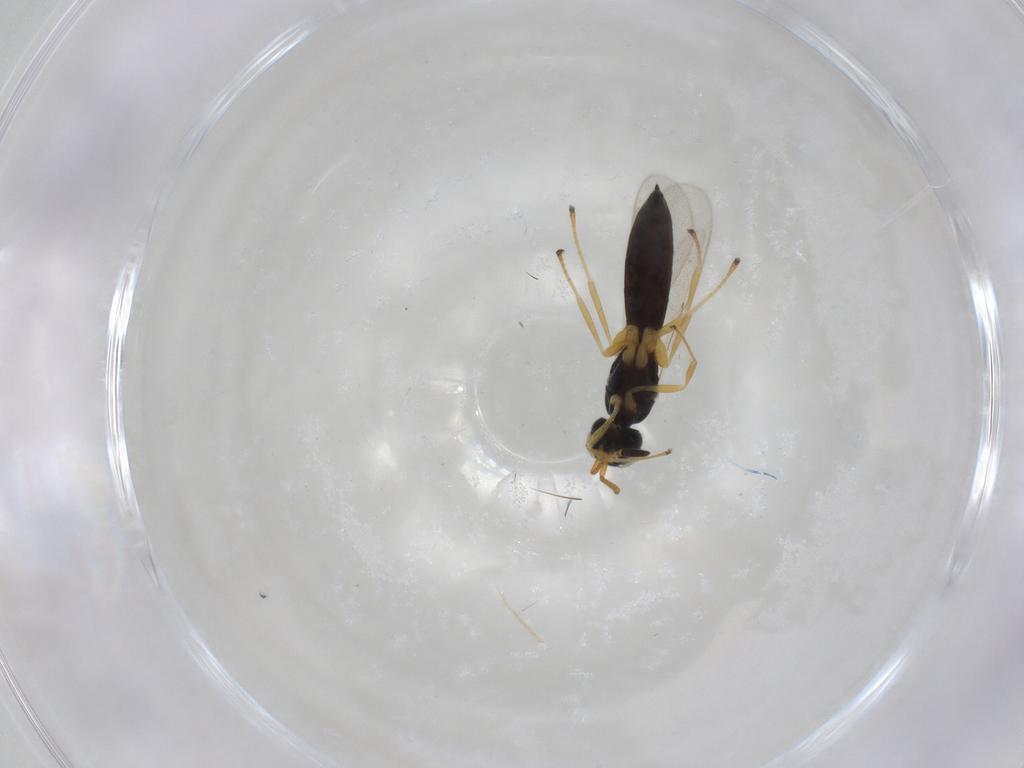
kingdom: Animalia
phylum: Arthropoda
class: Insecta
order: Hymenoptera
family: Scelionidae
